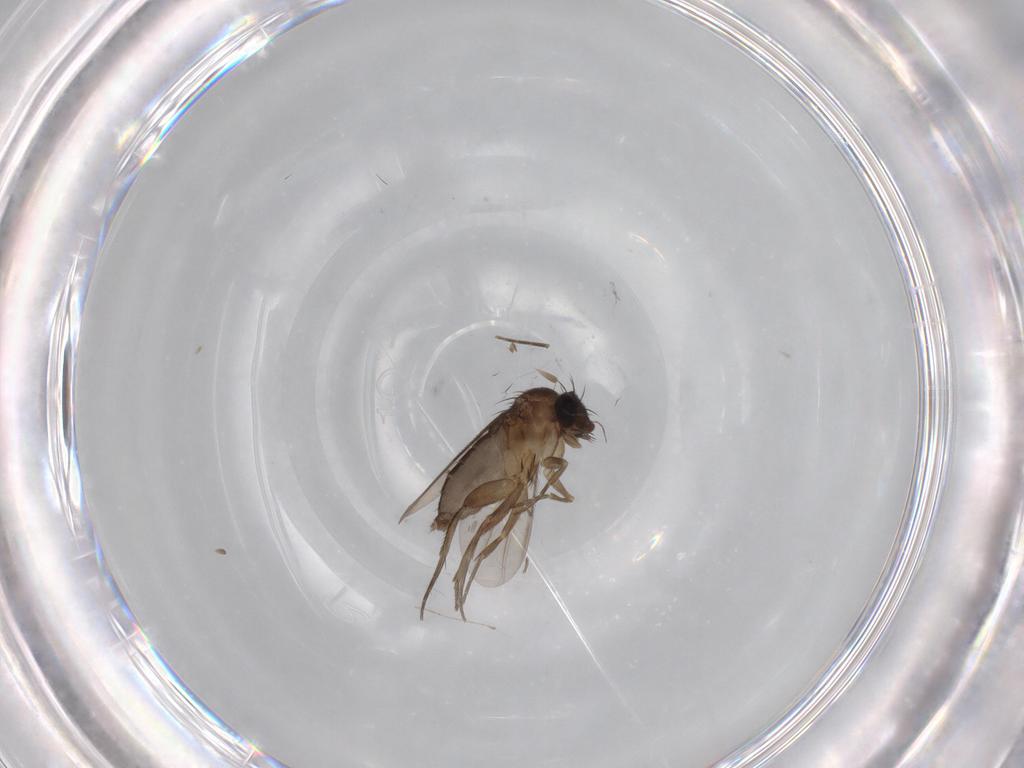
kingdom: Animalia
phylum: Arthropoda
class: Insecta
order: Diptera
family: Phoridae
